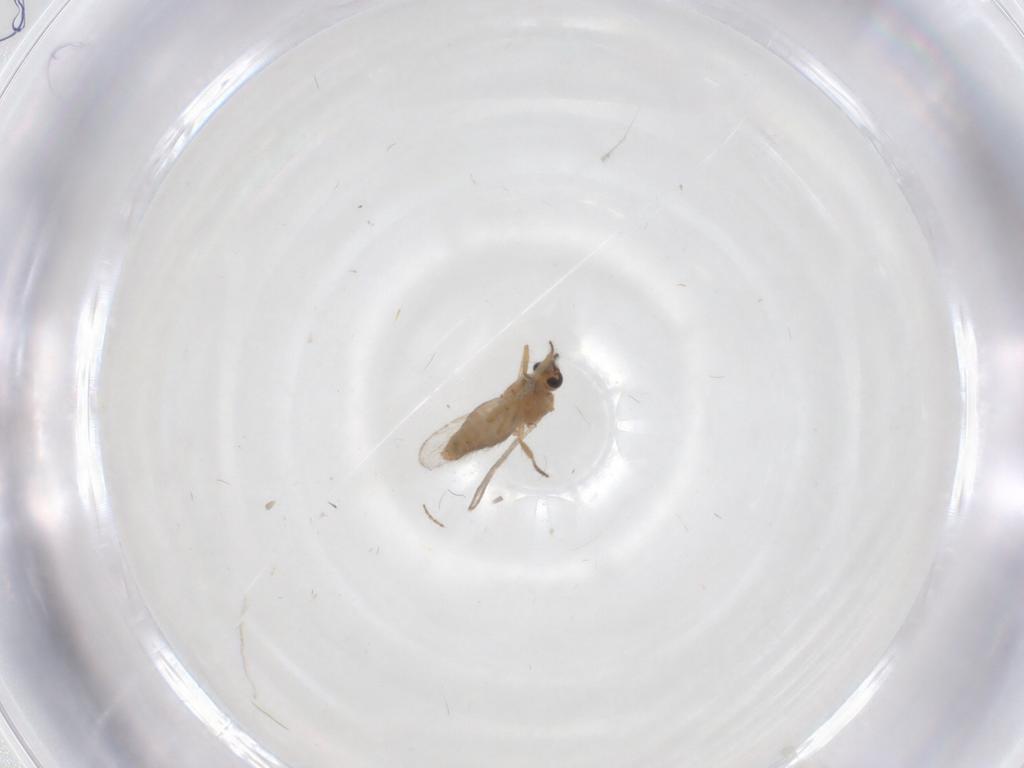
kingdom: Animalia
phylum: Arthropoda
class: Insecta
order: Diptera
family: Ceratopogonidae
